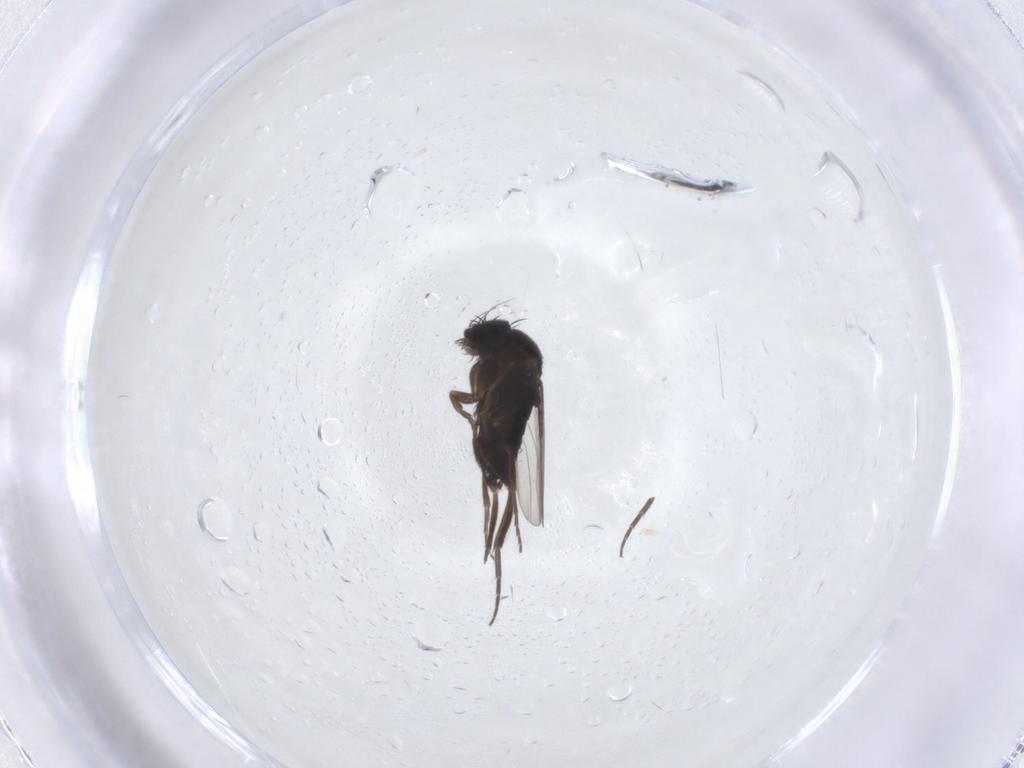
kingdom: Animalia
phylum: Arthropoda
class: Insecta
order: Diptera
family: Phoridae
